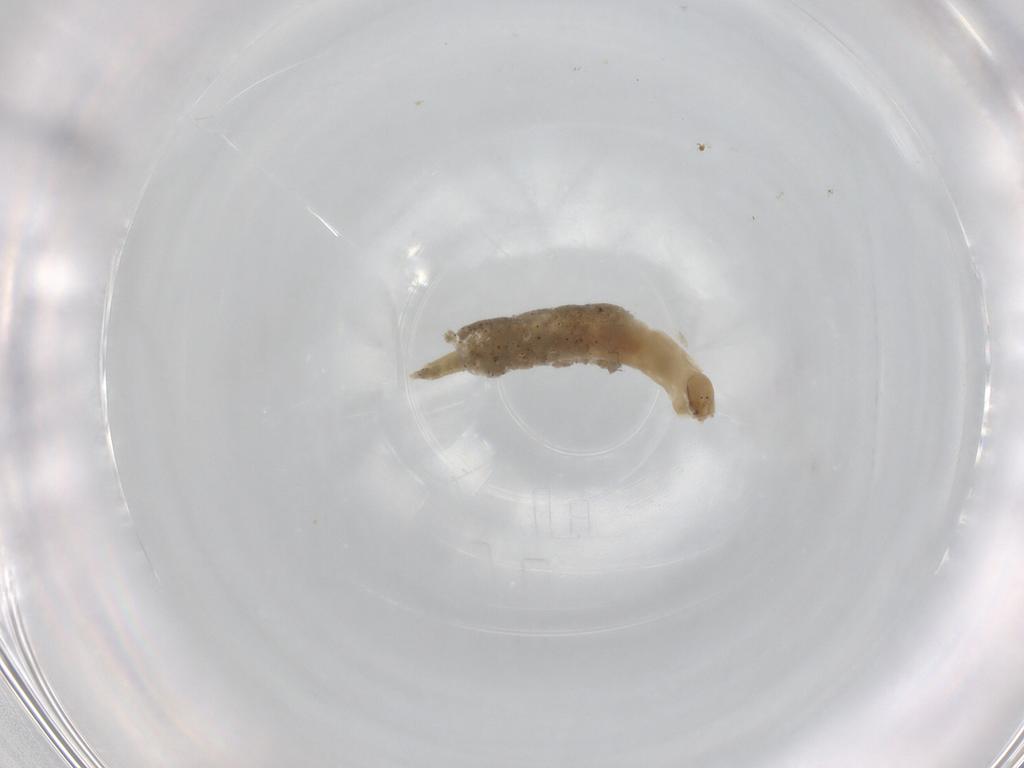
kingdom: Animalia
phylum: Arthropoda
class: Insecta
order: Diptera
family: Chironomidae
